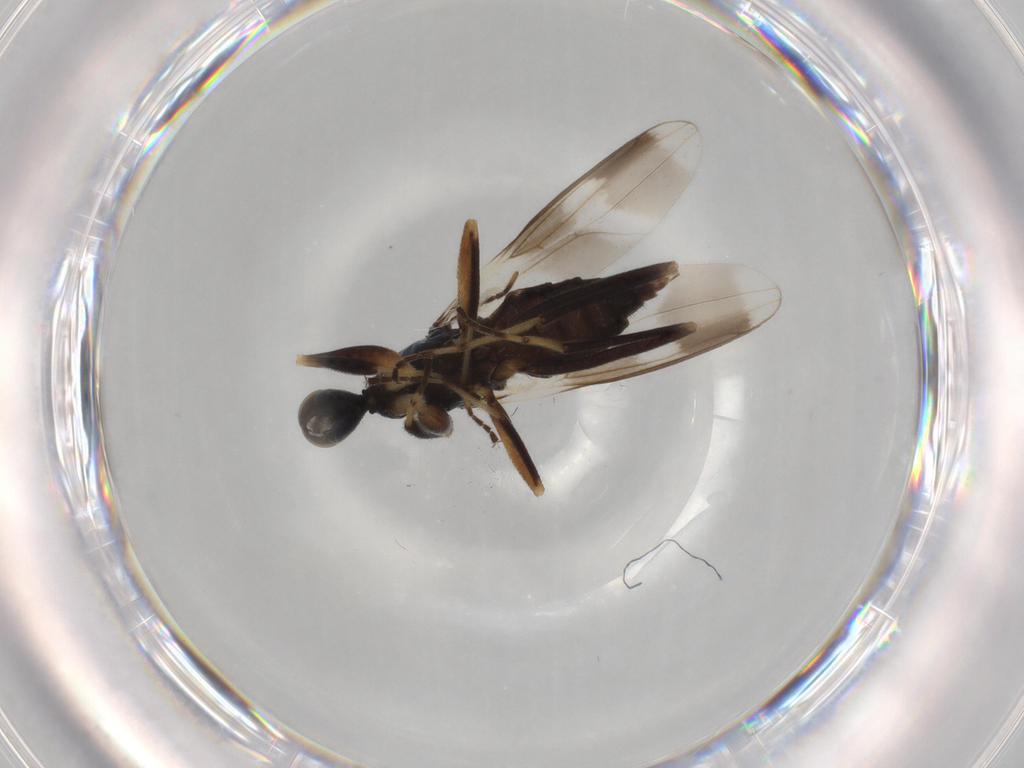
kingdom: Animalia
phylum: Arthropoda
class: Insecta
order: Diptera
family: Hybotidae
